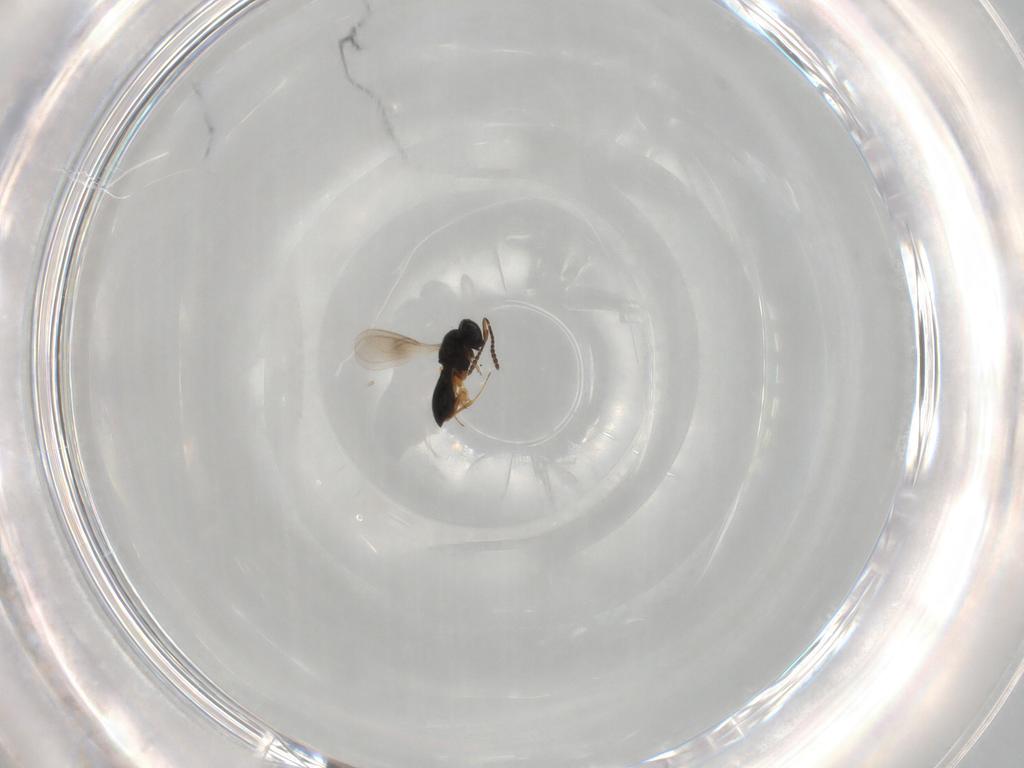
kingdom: Animalia
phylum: Arthropoda
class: Insecta
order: Hymenoptera
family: Scelionidae
